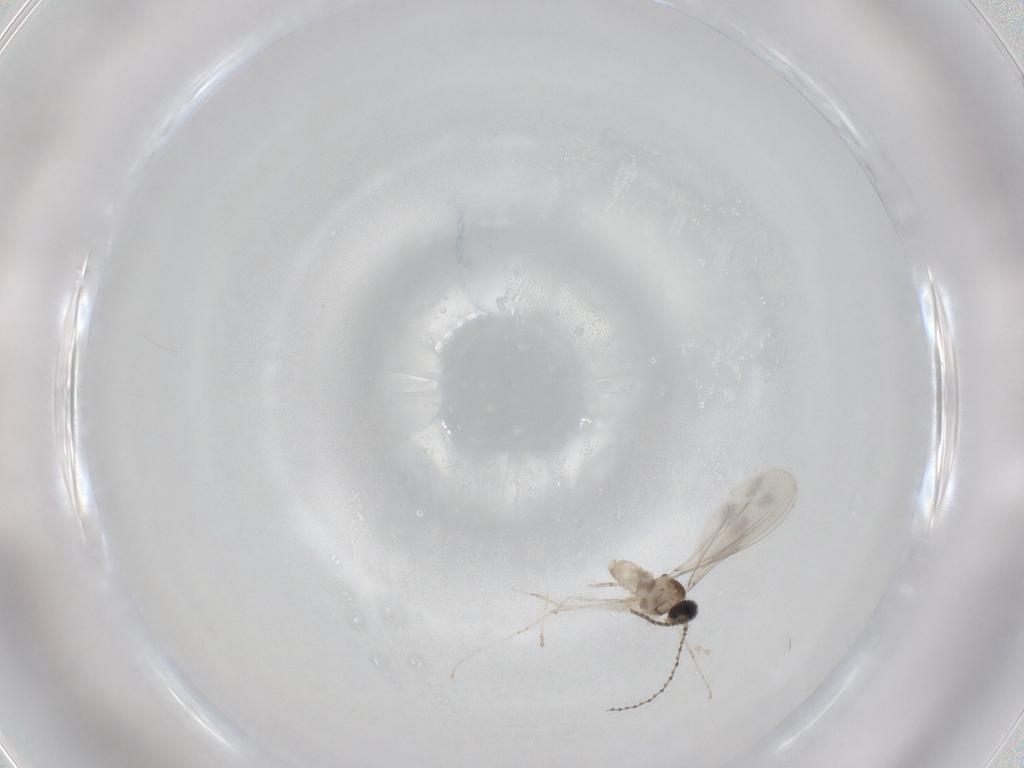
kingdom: Animalia
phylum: Arthropoda
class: Insecta
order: Diptera
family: Cecidomyiidae
